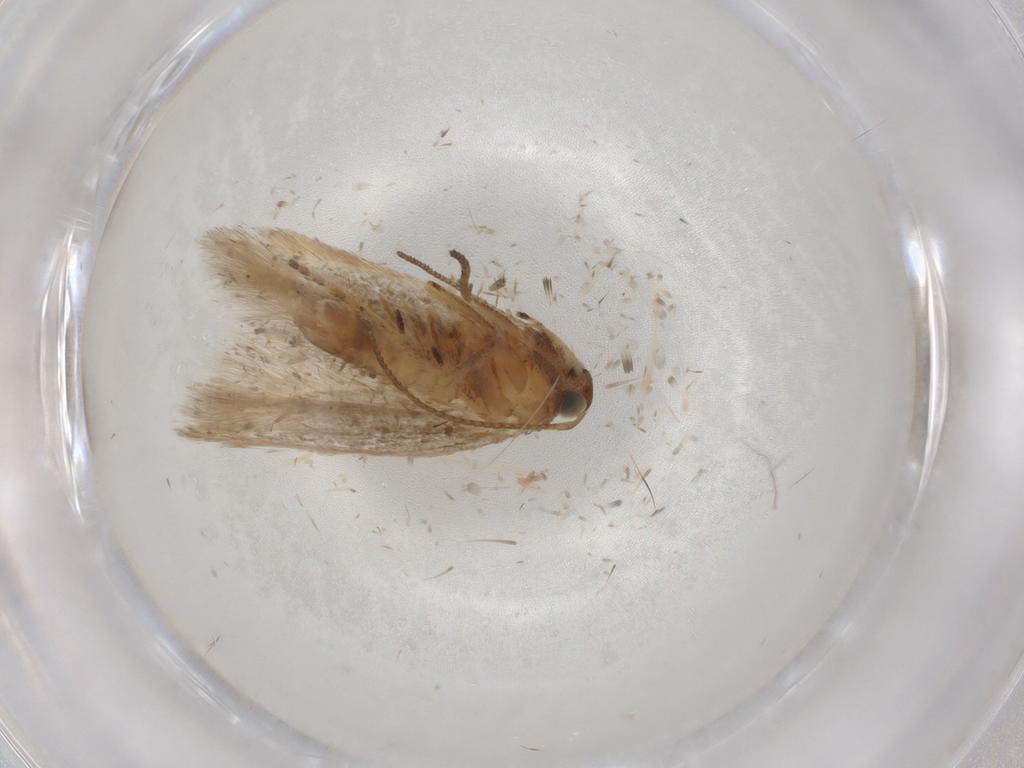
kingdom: Animalia
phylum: Arthropoda
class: Insecta
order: Lepidoptera
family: Gelechiidae
